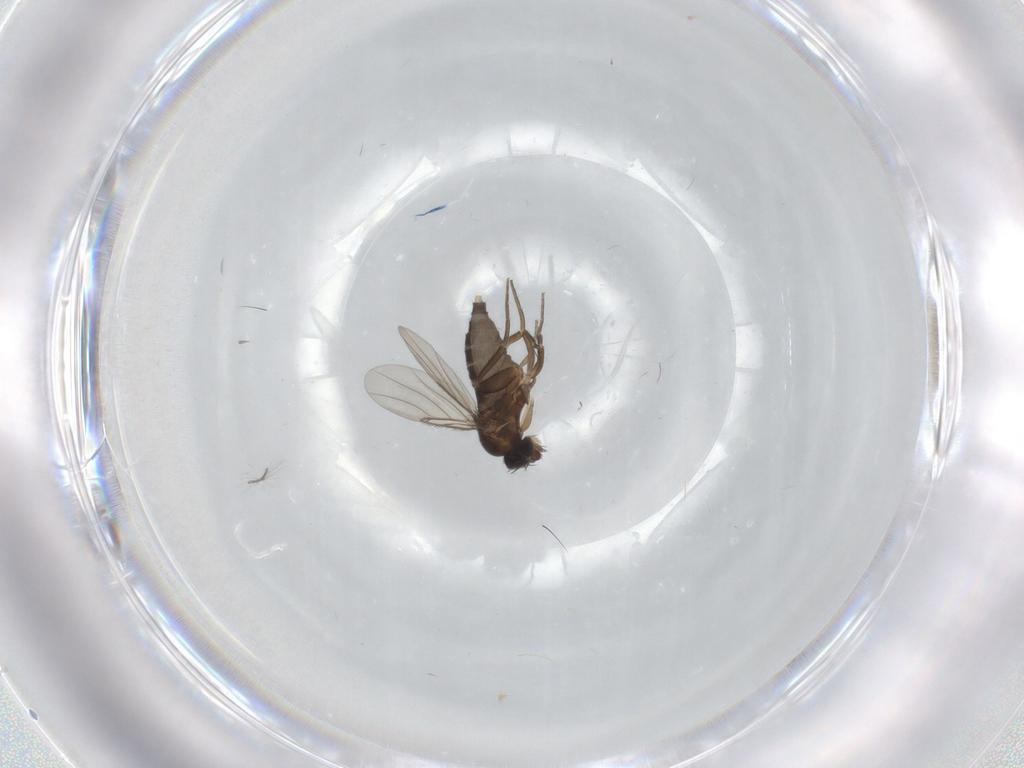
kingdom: Animalia
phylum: Arthropoda
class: Insecta
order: Diptera
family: Phoridae
